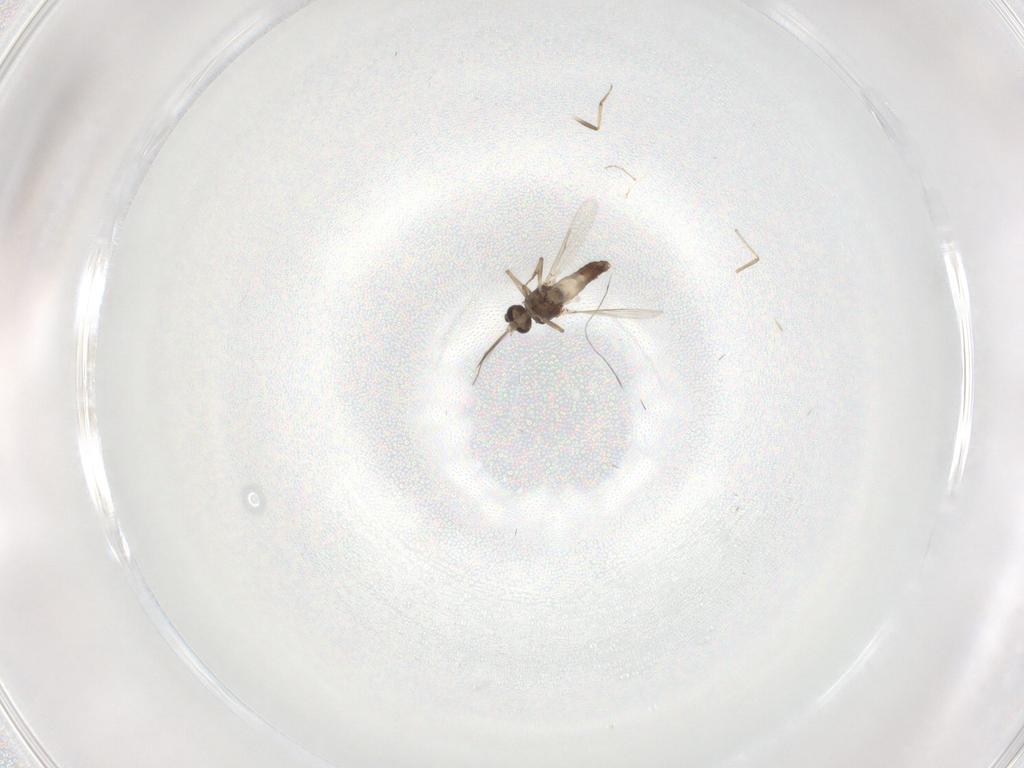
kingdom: Animalia
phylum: Arthropoda
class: Insecta
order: Diptera
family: Ceratopogonidae
